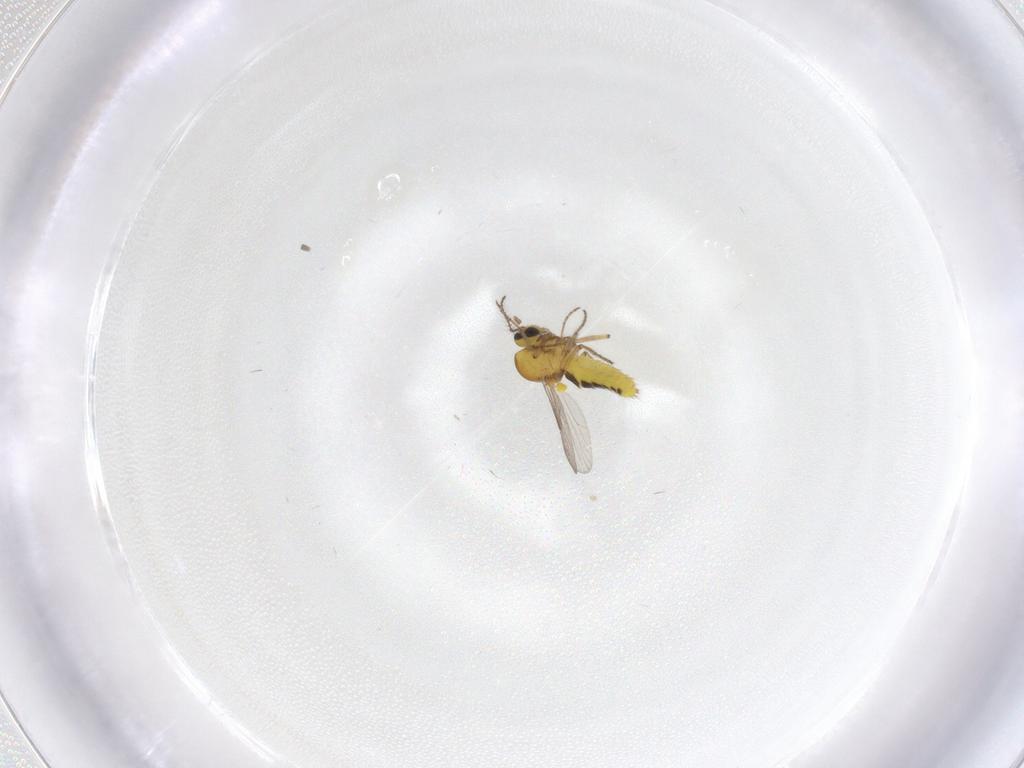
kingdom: Animalia
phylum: Arthropoda
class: Insecta
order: Diptera
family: Ceratopogonidae
